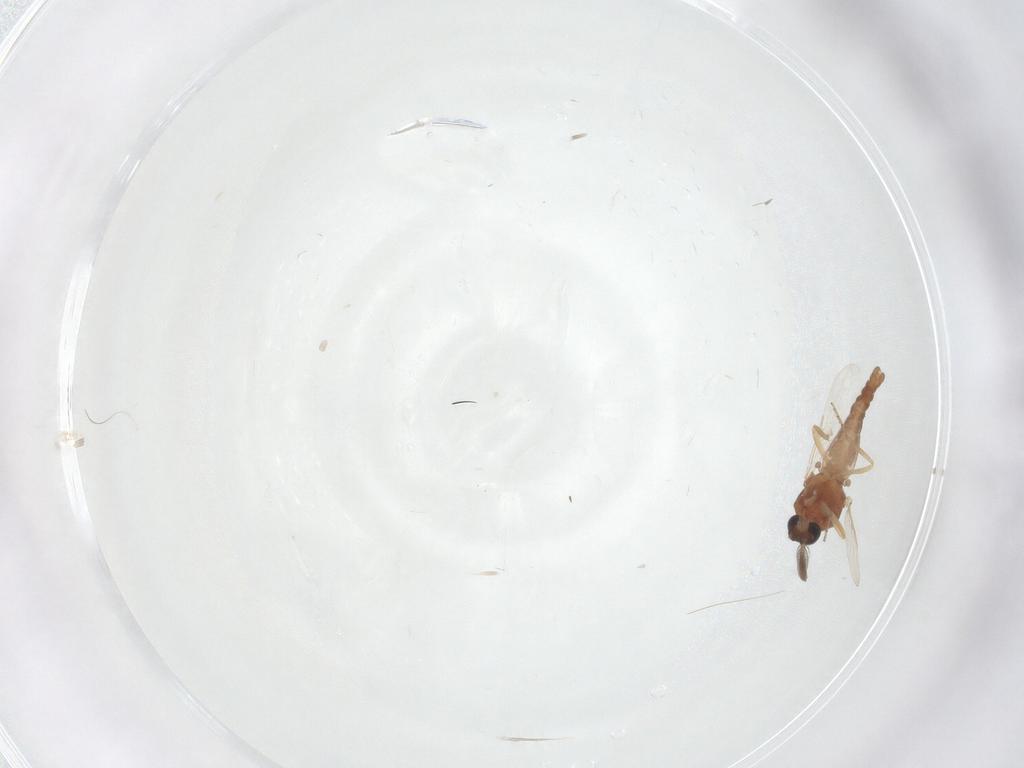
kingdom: Animalia
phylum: Arthropoda
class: Insecta
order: Diptera
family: Ceratopogonidae
